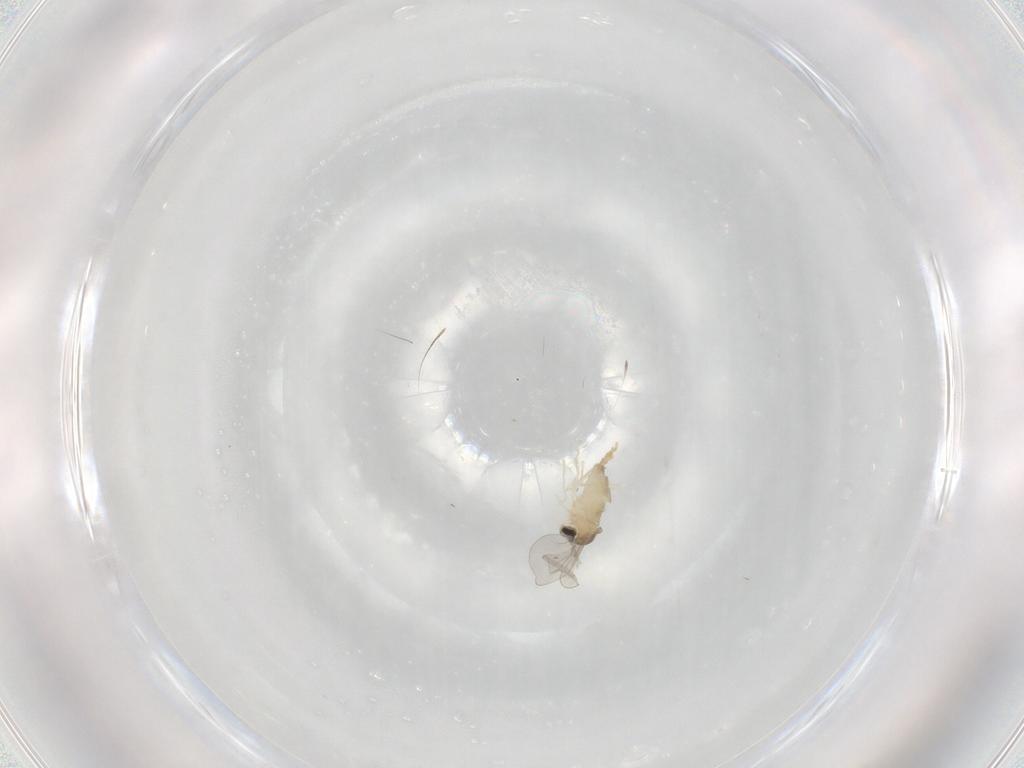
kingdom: Animalia
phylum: Arthropoda
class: Insecta
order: Diptera
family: Cecidomyiidae
